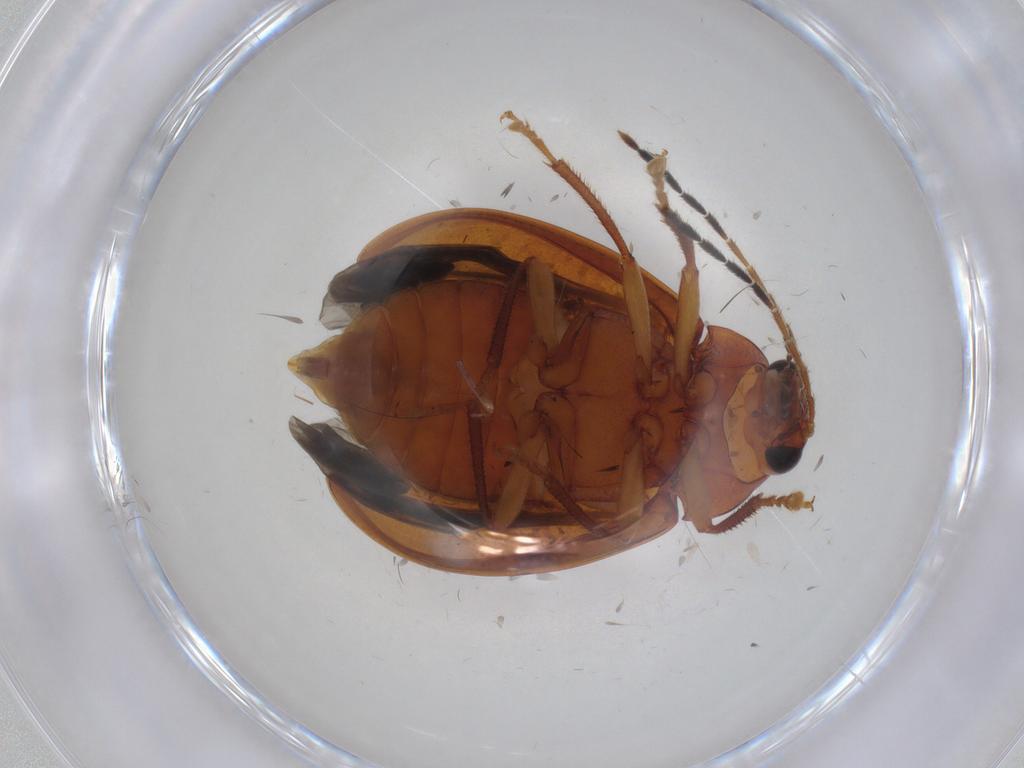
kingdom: Animalia
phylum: Arthropoda
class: Insecta
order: Coleoptera
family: Ptilodactylidae
